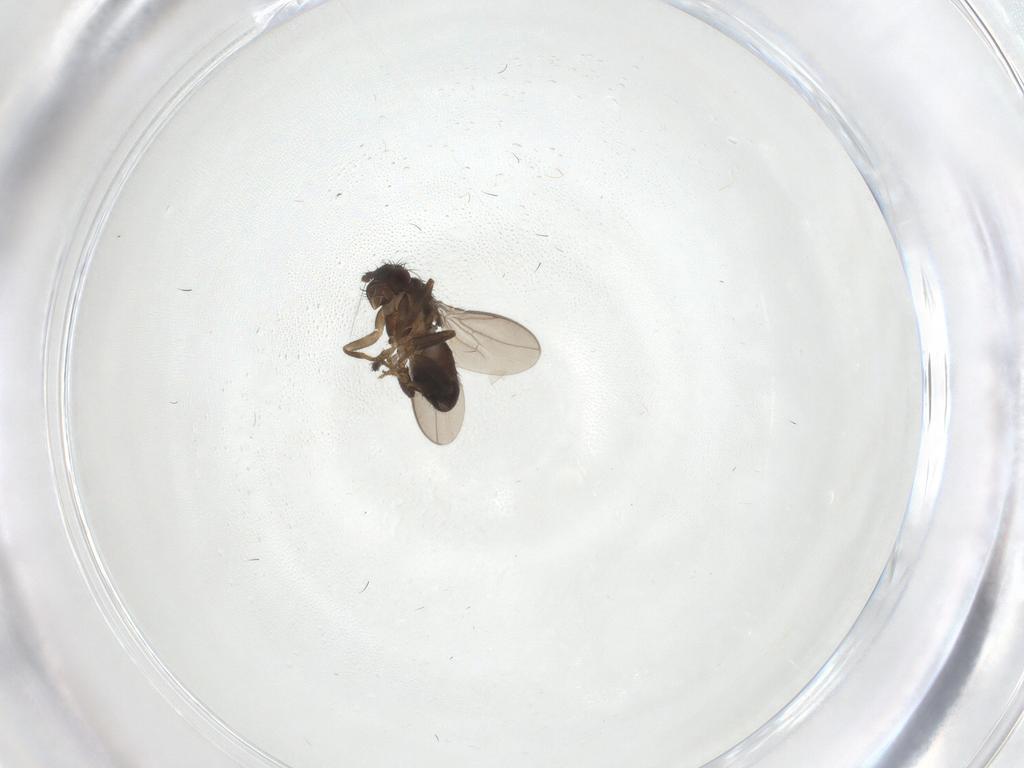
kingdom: Animalia
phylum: Arthropoda
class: Insecta
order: Diptera
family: Sphaeroceridae
